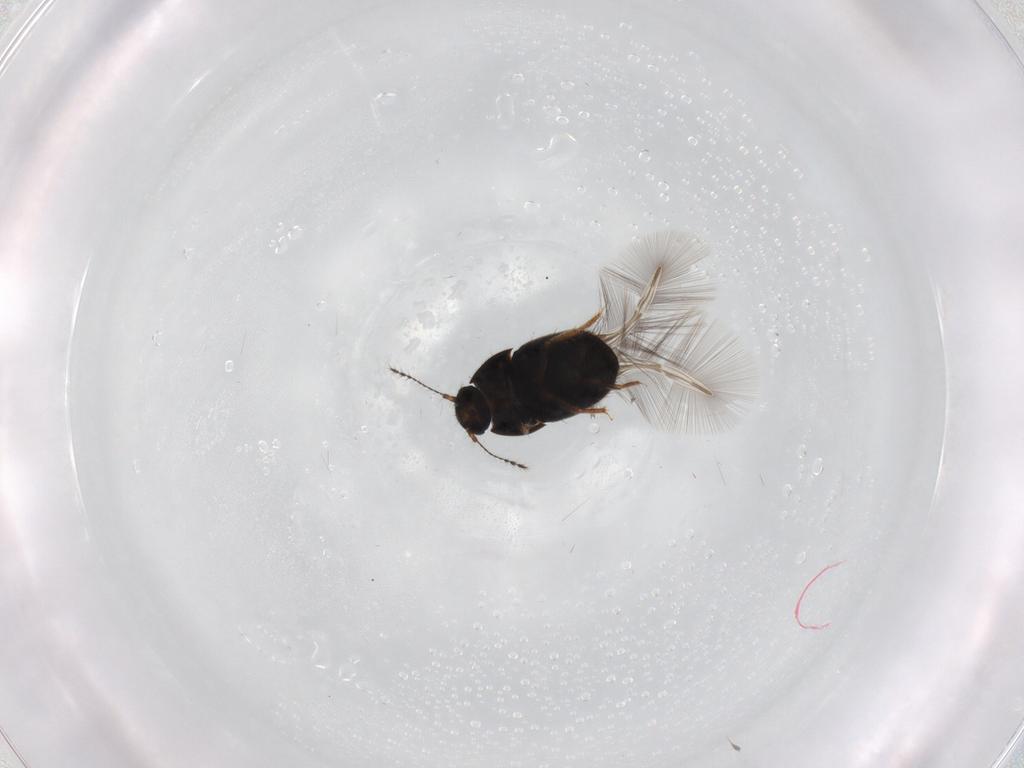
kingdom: Animalia
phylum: Arthropoda
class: Insecta
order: Coleoptera
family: Ptiliidae
